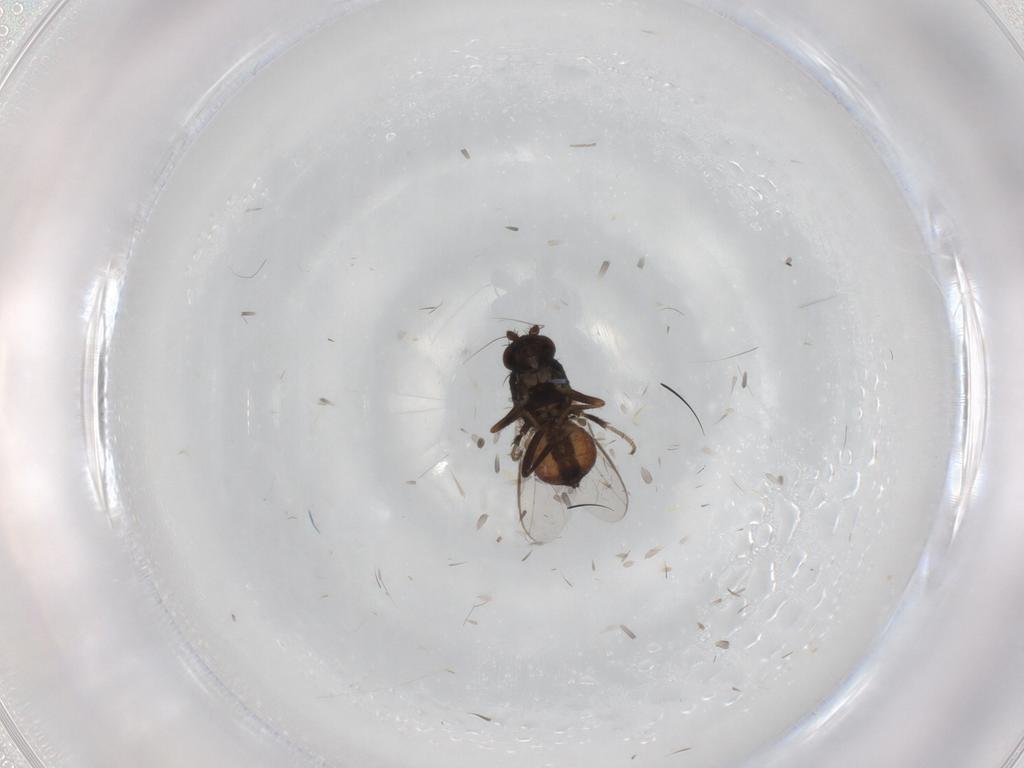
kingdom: Animalia
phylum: Arthropoda
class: Insecta
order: Diptera
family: Sphaeroceridae
